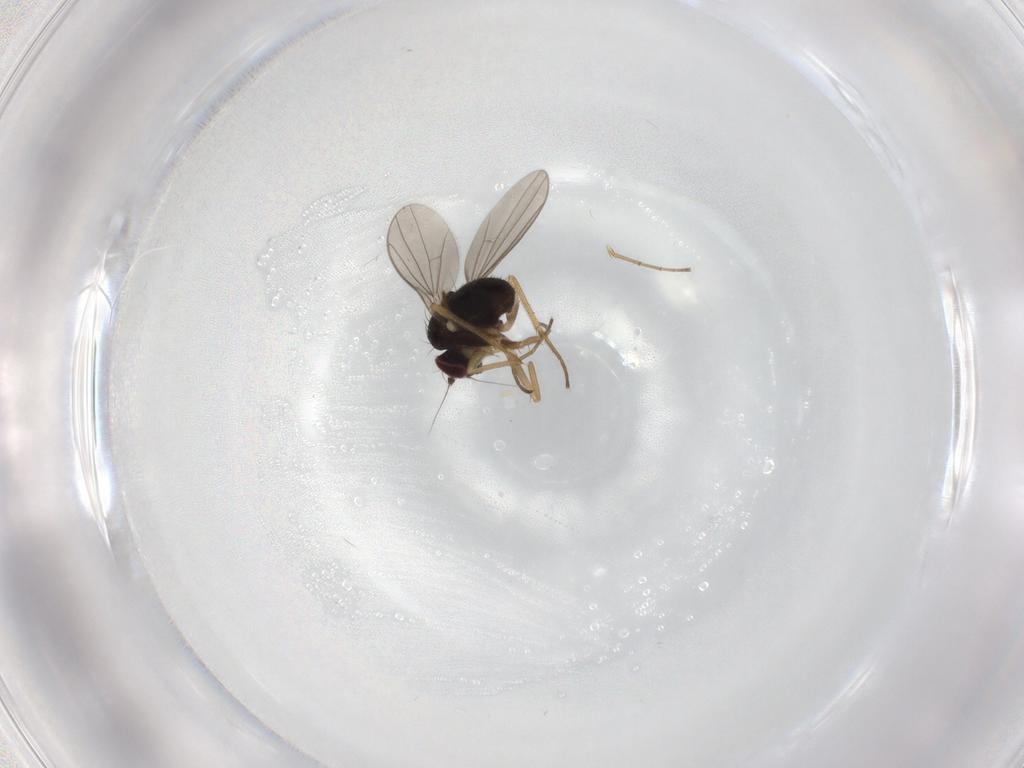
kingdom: Animalia
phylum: Arthropoda
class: Insecta
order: Diptera
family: Dolichopodidae
